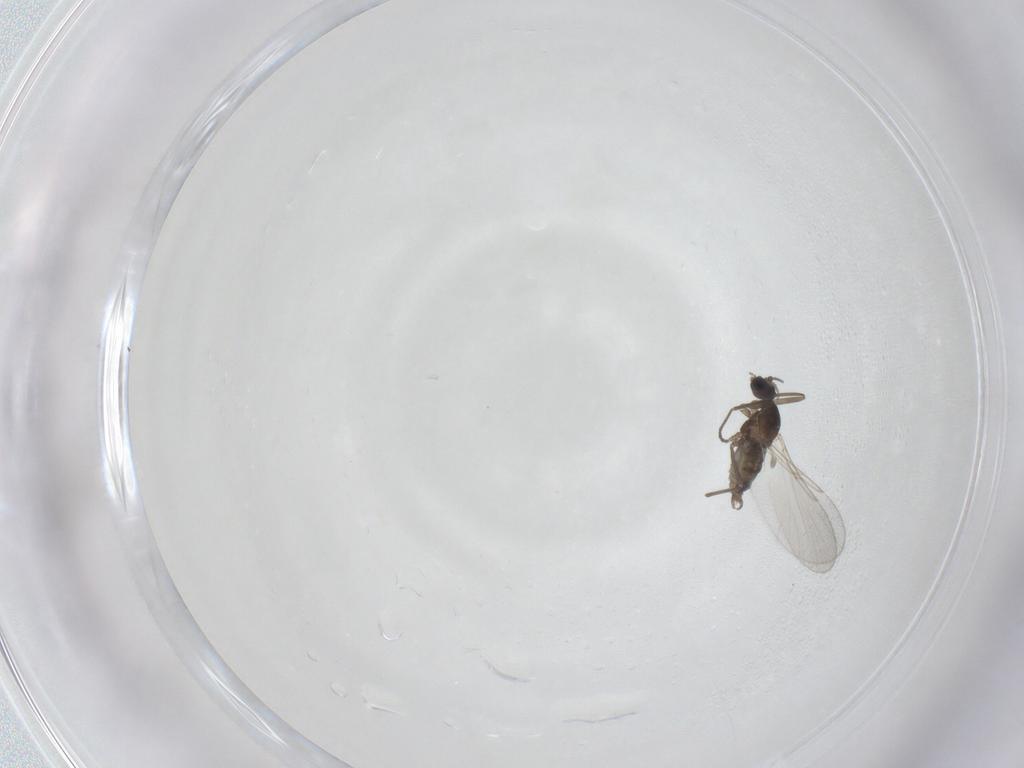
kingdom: Animalia
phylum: Arthropoda
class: Insecta
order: Diptera
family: Cecidomyiidae
